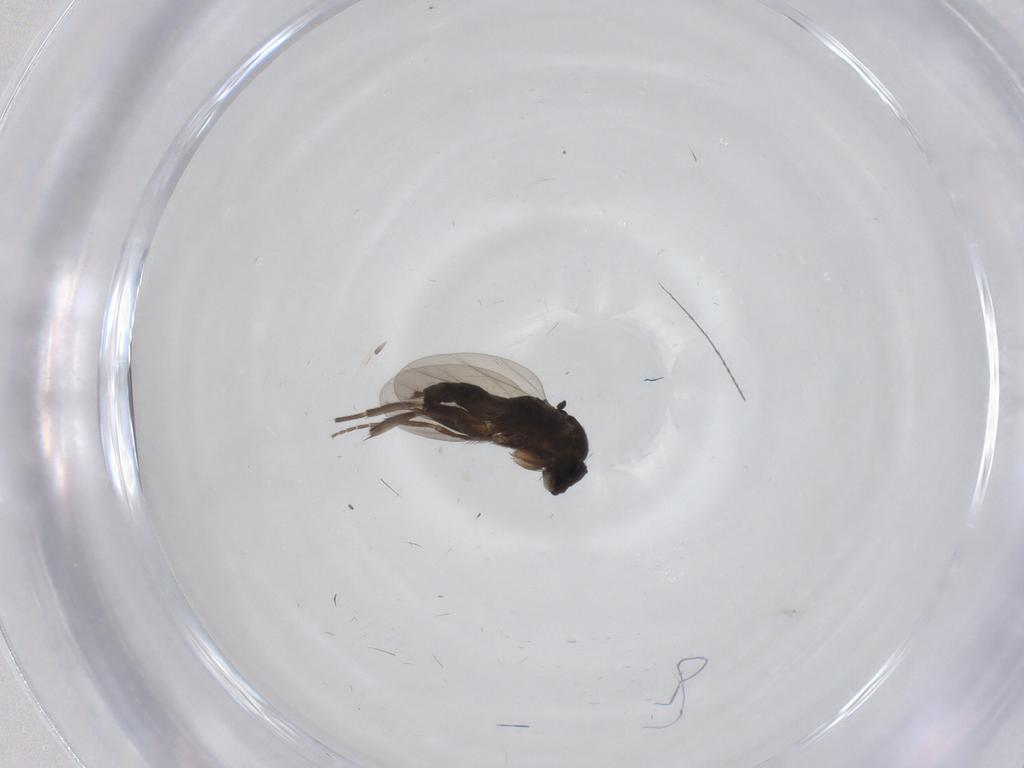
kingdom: Animalia
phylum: Arthropoda
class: Insecta
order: Diptera
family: Phoridae
